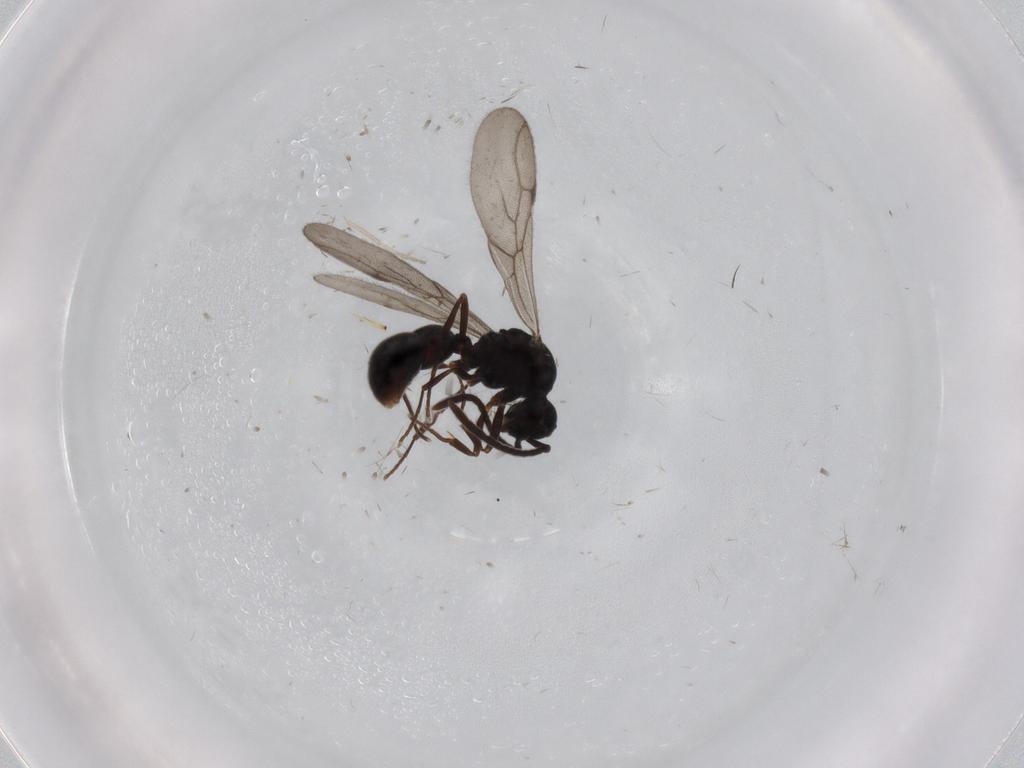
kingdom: Animalia
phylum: Arthropoda
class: Insecta
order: Hymenoptera
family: Formicidae
